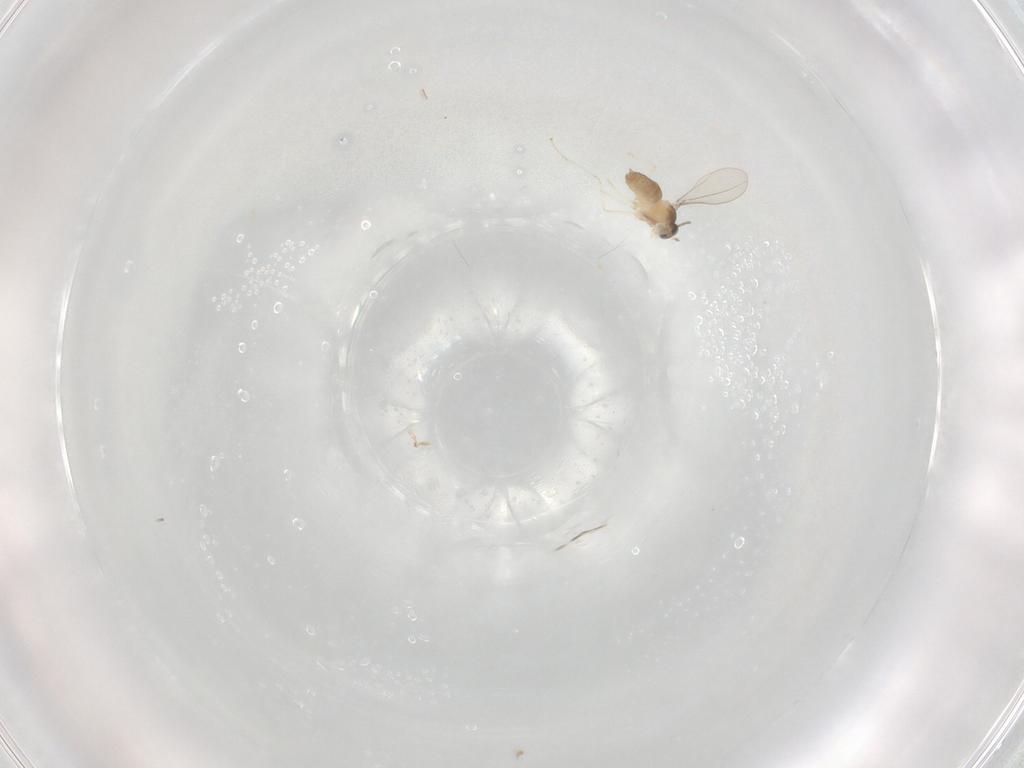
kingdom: Animalia
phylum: Arthropoda
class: Insecta
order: Diptera
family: Cecidomyiidae
